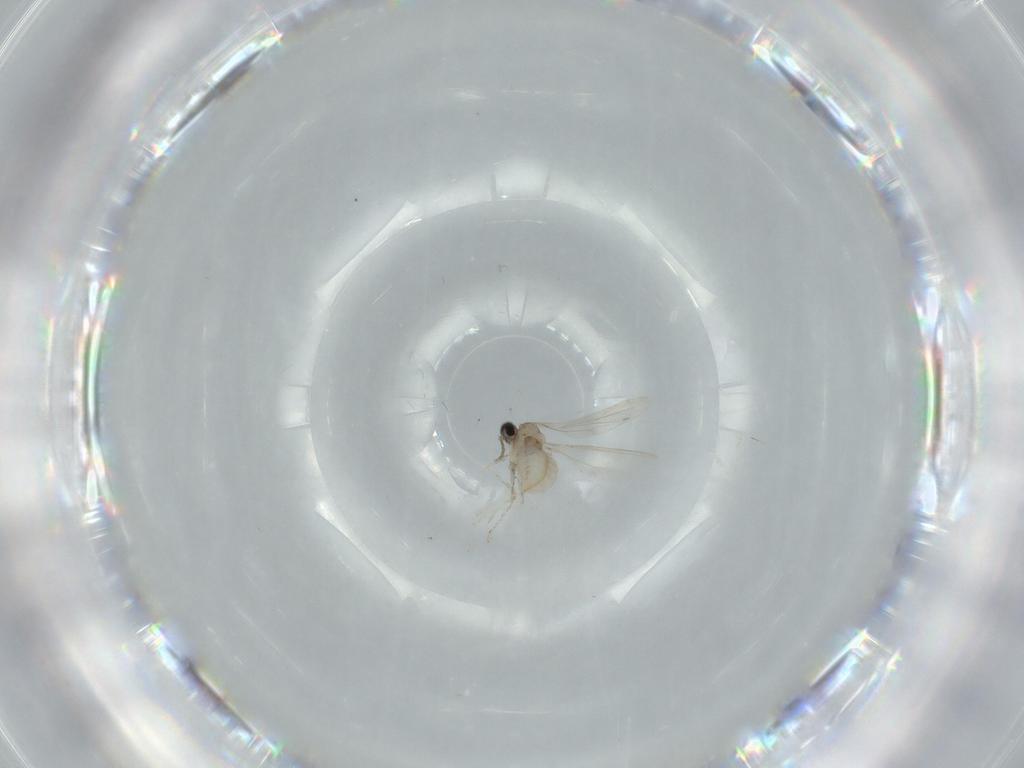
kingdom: Animalia
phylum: Arthropoda
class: Insecta
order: Diptera
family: Cecidomyiidae
